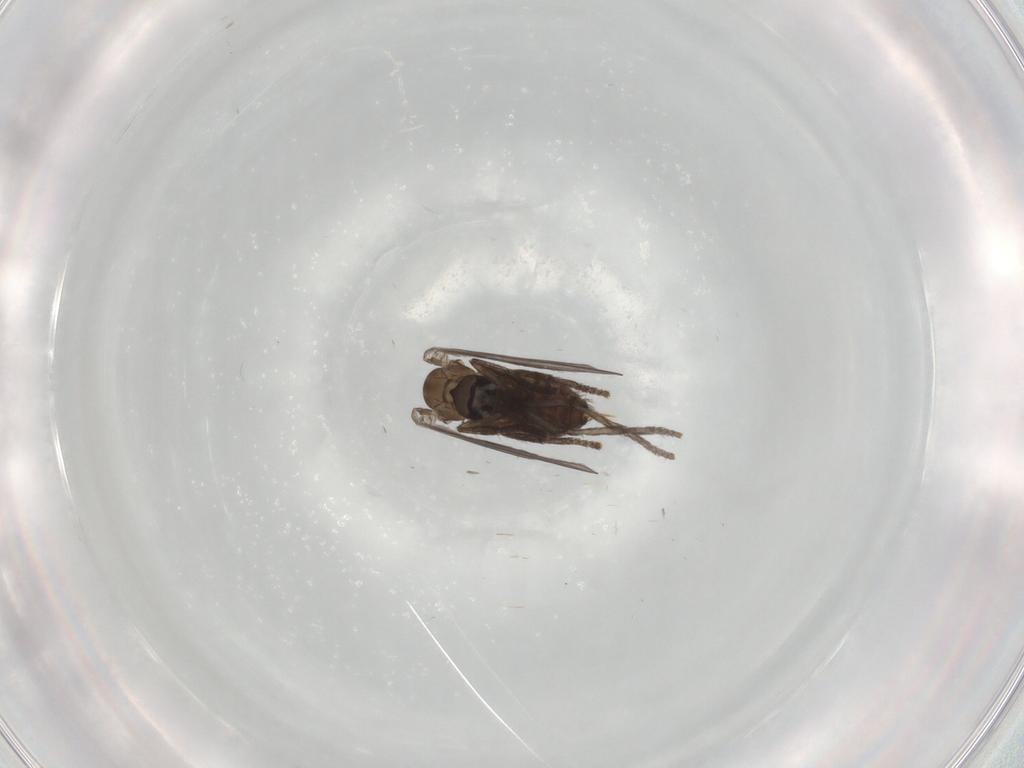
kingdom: Animalia
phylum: Arthropoda
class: Insecta
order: Diptera
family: Psychodidae
